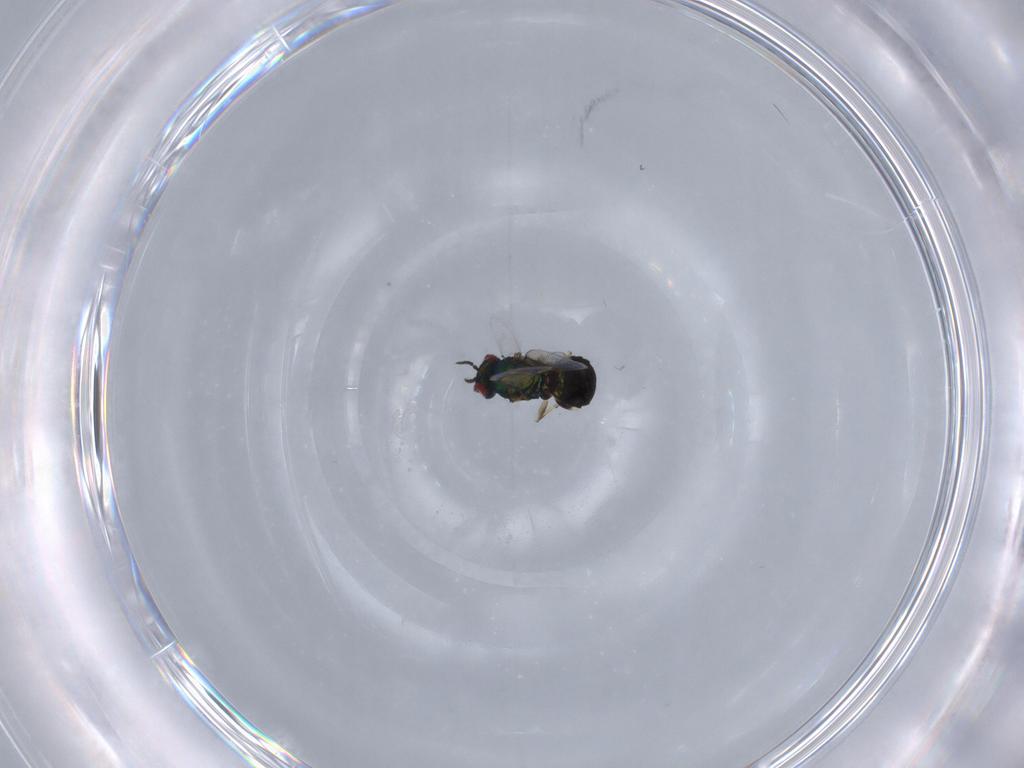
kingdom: Animalia
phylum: Arthropoda
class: Insecta
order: Hymenoptera
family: Eulophidae
